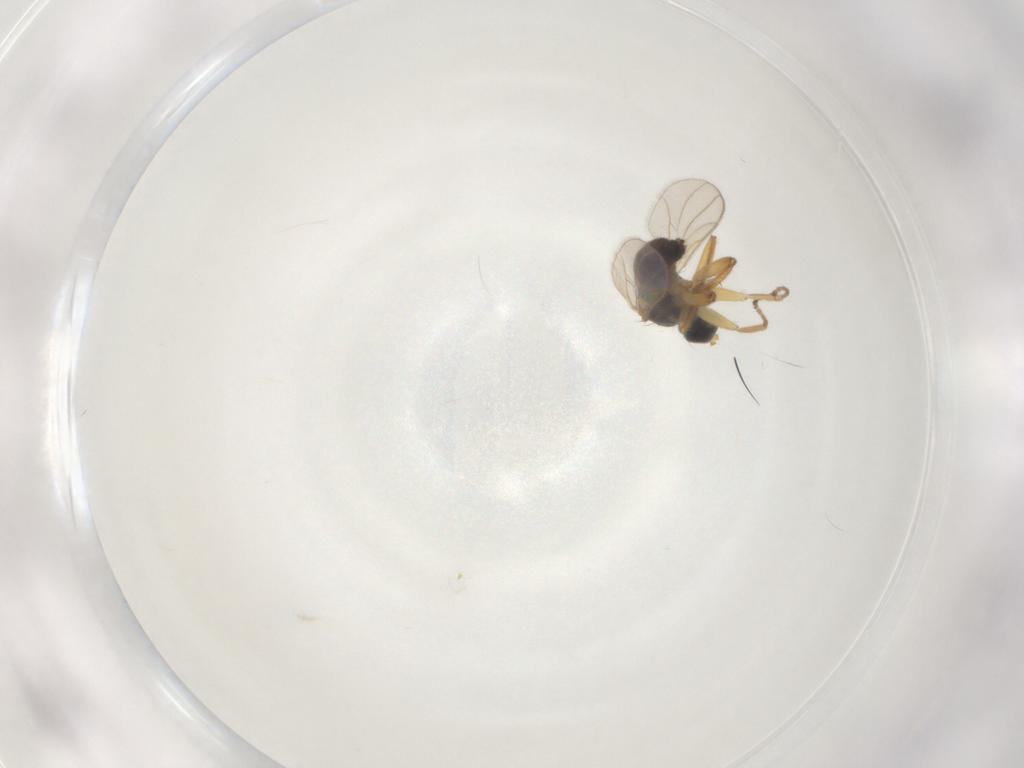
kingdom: Animalia
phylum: Arthropoda
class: Insecta
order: Diptera
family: Hybotidae
